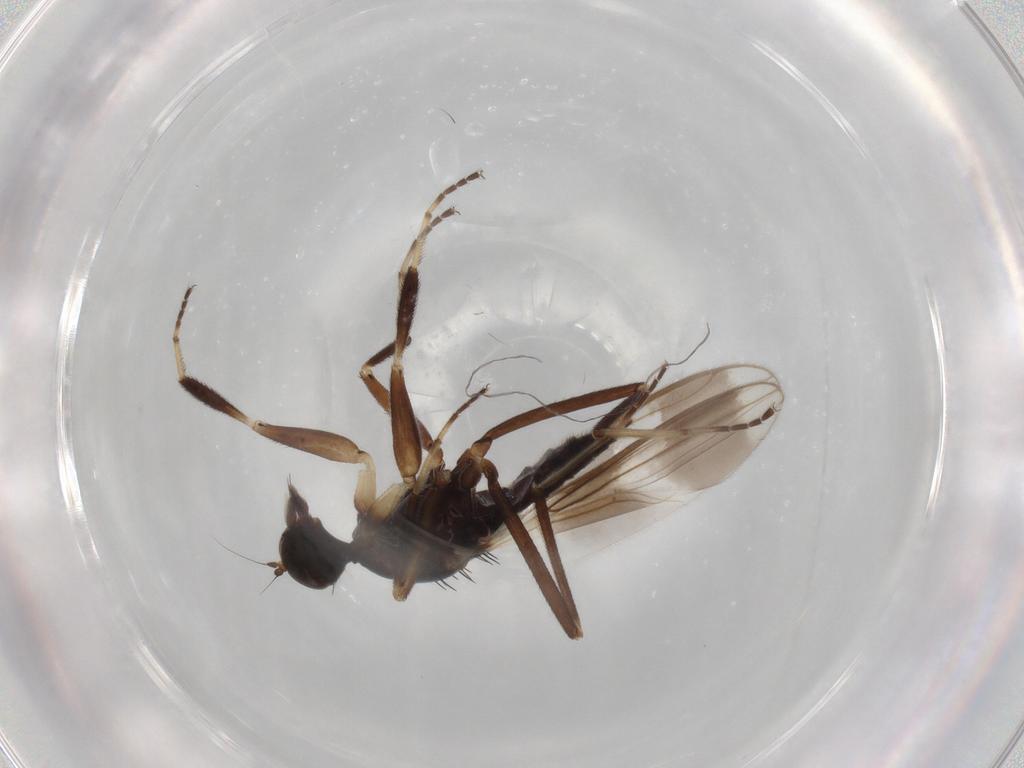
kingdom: Animalia
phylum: Arthropoda
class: Insecta
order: Diptera
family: Hybotidae
